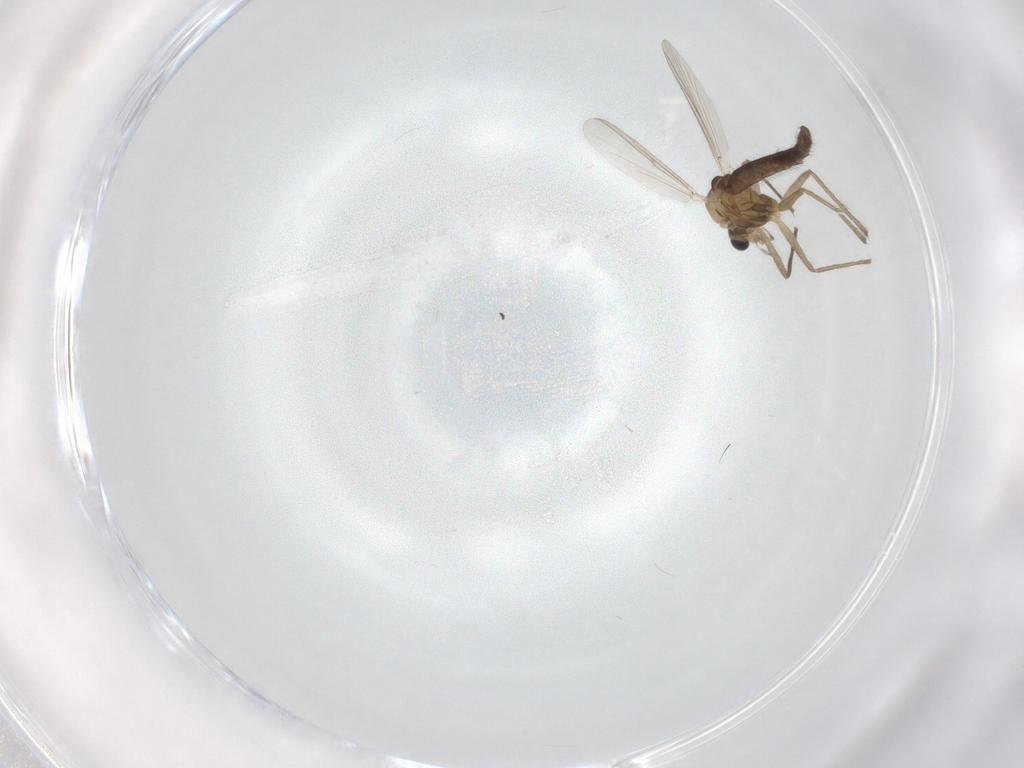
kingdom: Animalia
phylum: Arthropoda
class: Insecta
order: Diptera
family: Chironomidae
